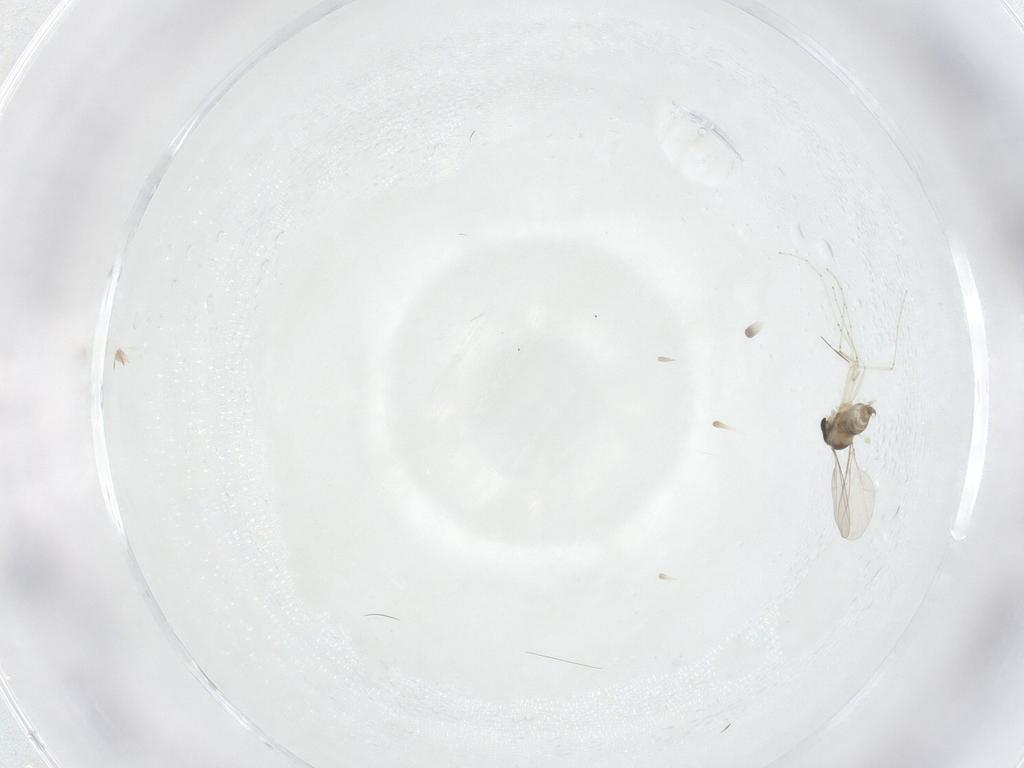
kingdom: Animalia
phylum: Arthropoda
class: Insecta
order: Diptera
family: Cecidomyiidae
